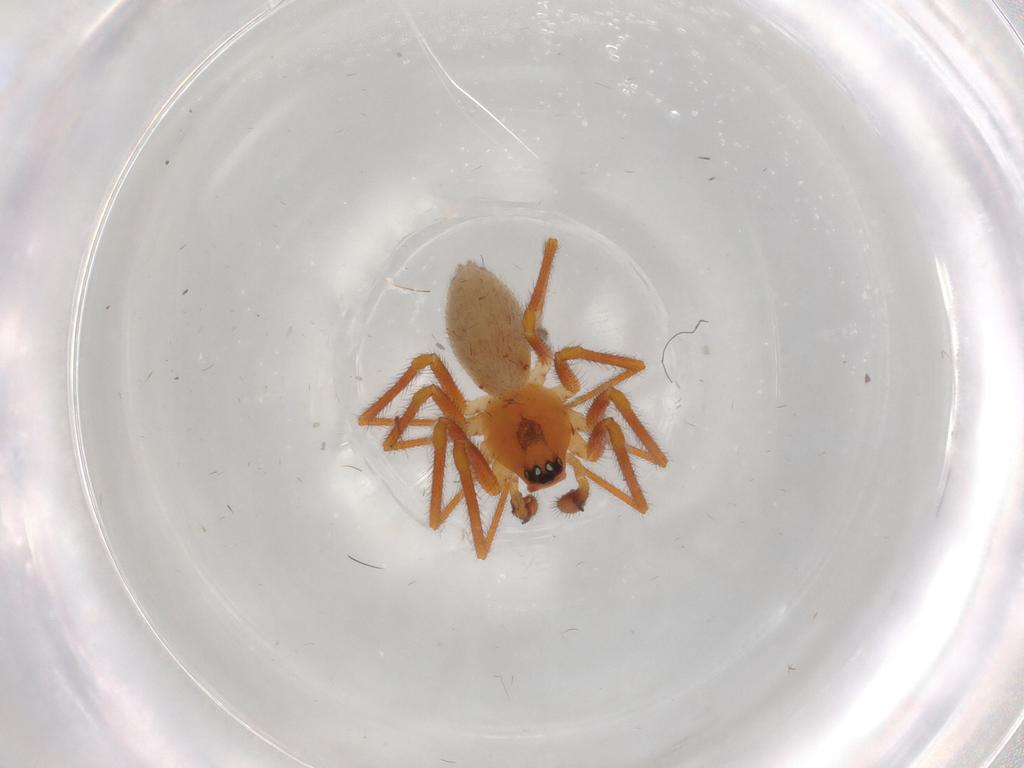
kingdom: Animalia
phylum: Arthropoda
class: Arachnida
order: Araneae
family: Linyphiidae
